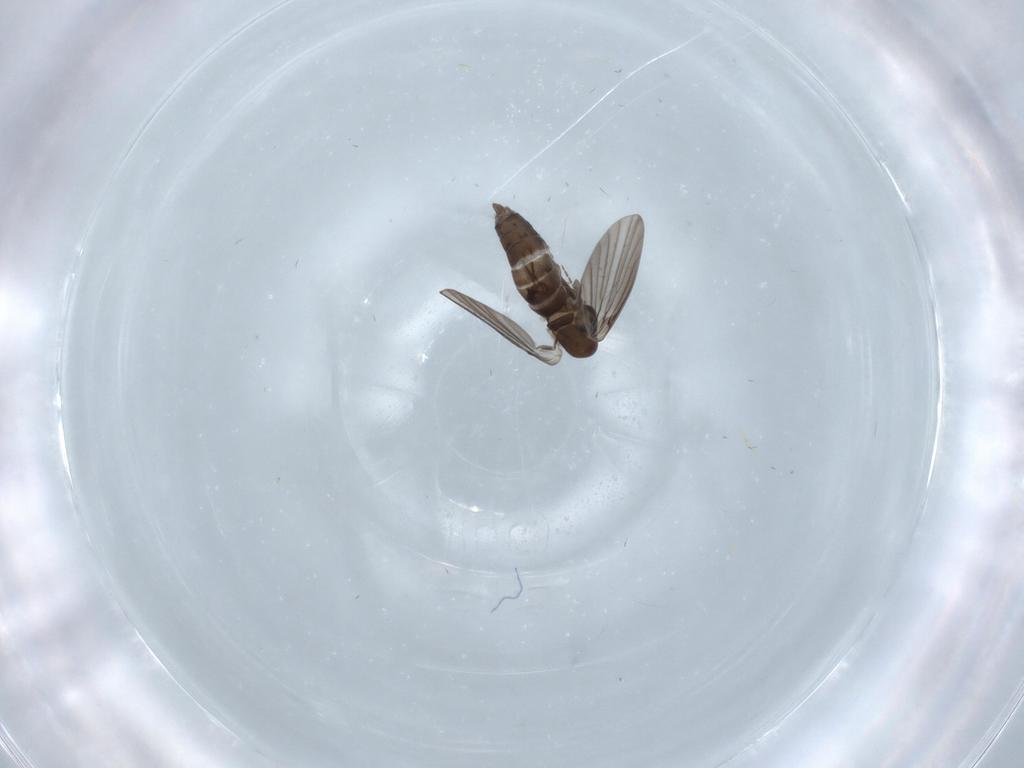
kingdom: Animalia
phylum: Arthropoda
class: Insecta
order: Diptera
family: Chironomidae
